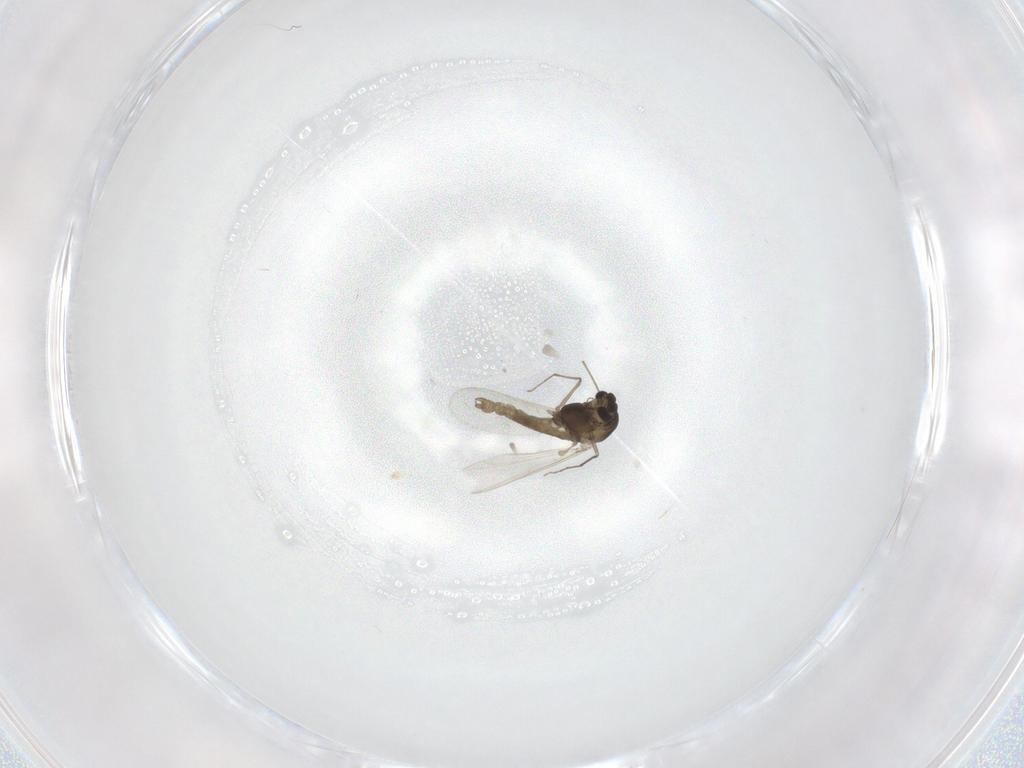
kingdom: Animalia
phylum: Arthropoda
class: Insecta
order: Diptera
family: Chironomidae
